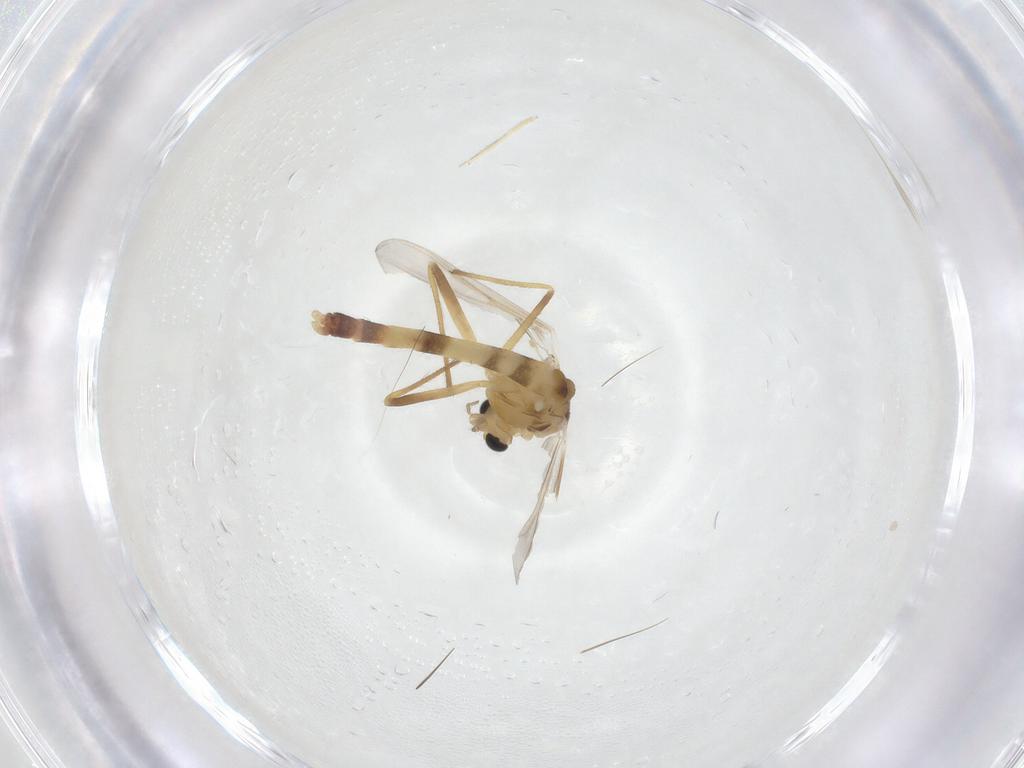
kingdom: Animalia
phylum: Arthropoda
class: Insecta
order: Diptera
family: Chironomidae
